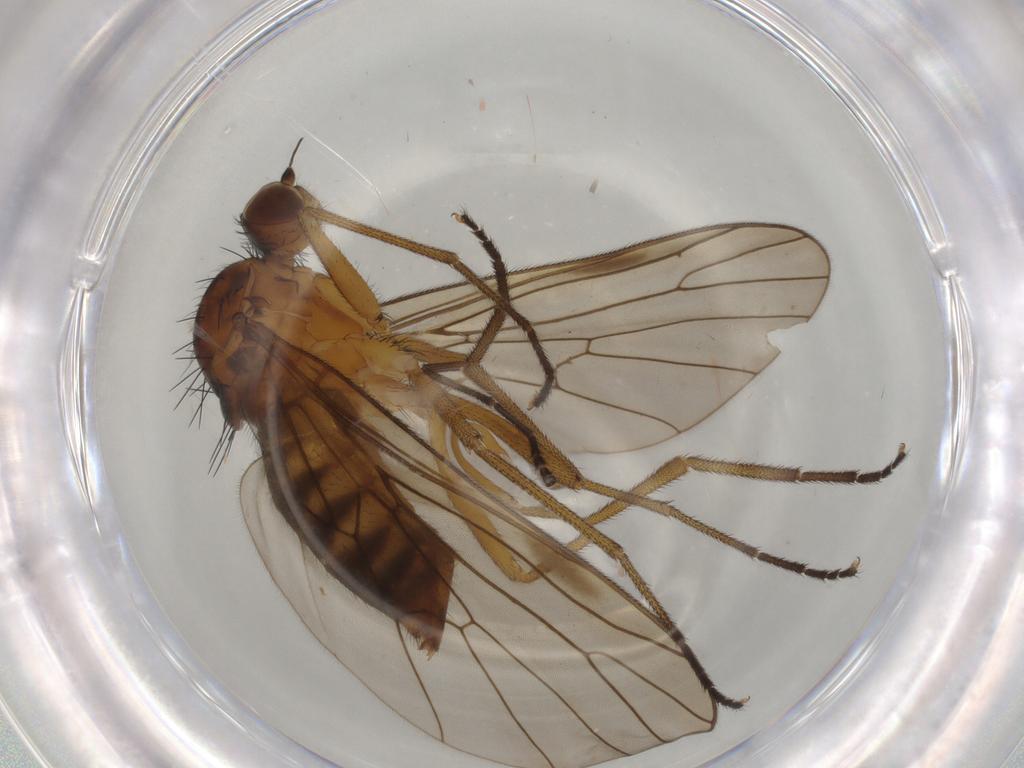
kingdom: Animalia
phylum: Arthropoda
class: Insecta
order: Diptera
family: Brachystomatidae
